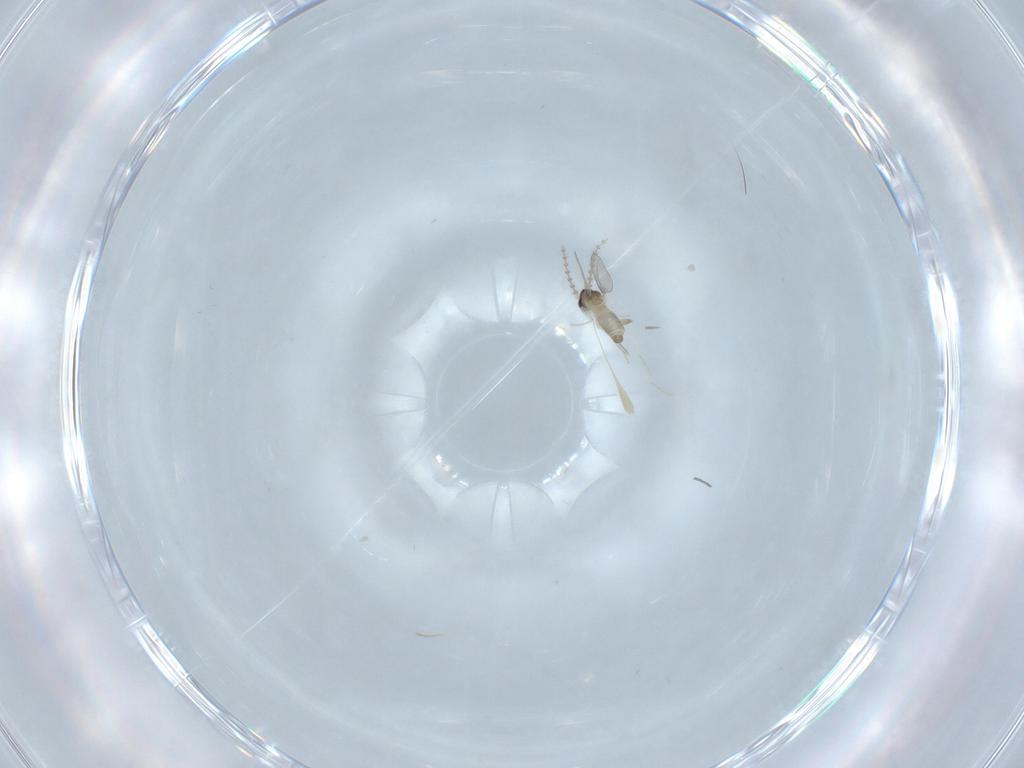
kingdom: Animalia
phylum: Arthropoda
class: Insecta
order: Diptera
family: Cecidomyiidae
